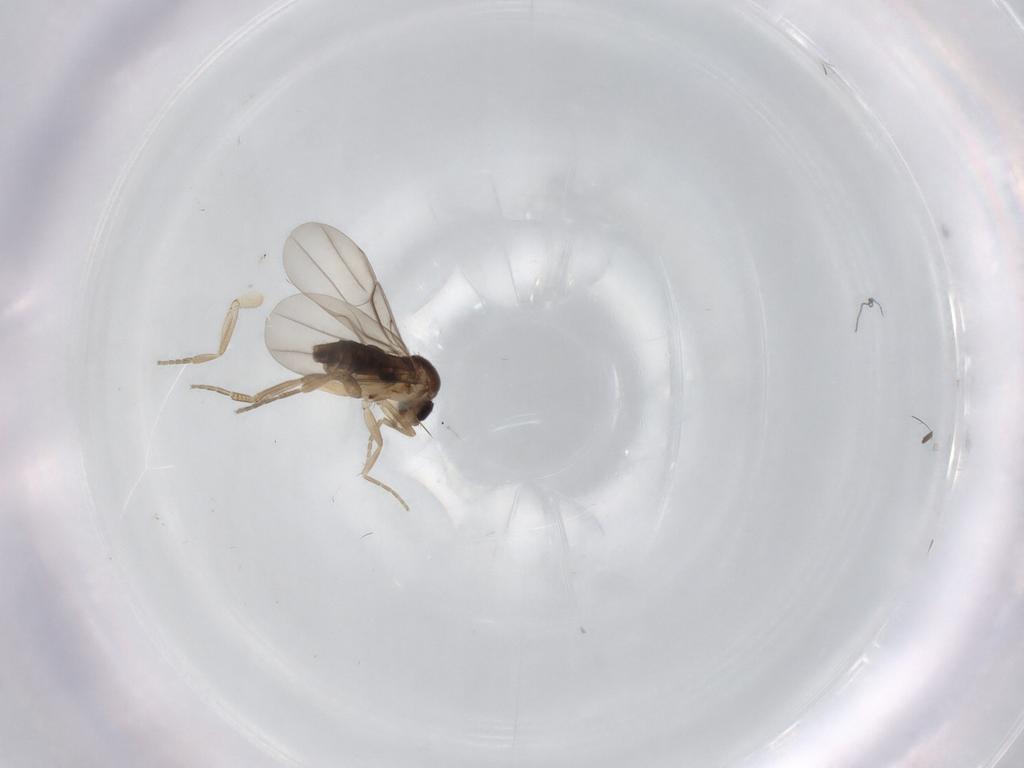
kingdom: Animalia
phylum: Arthropoda
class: Insecta
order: Diptera
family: Phoridae
